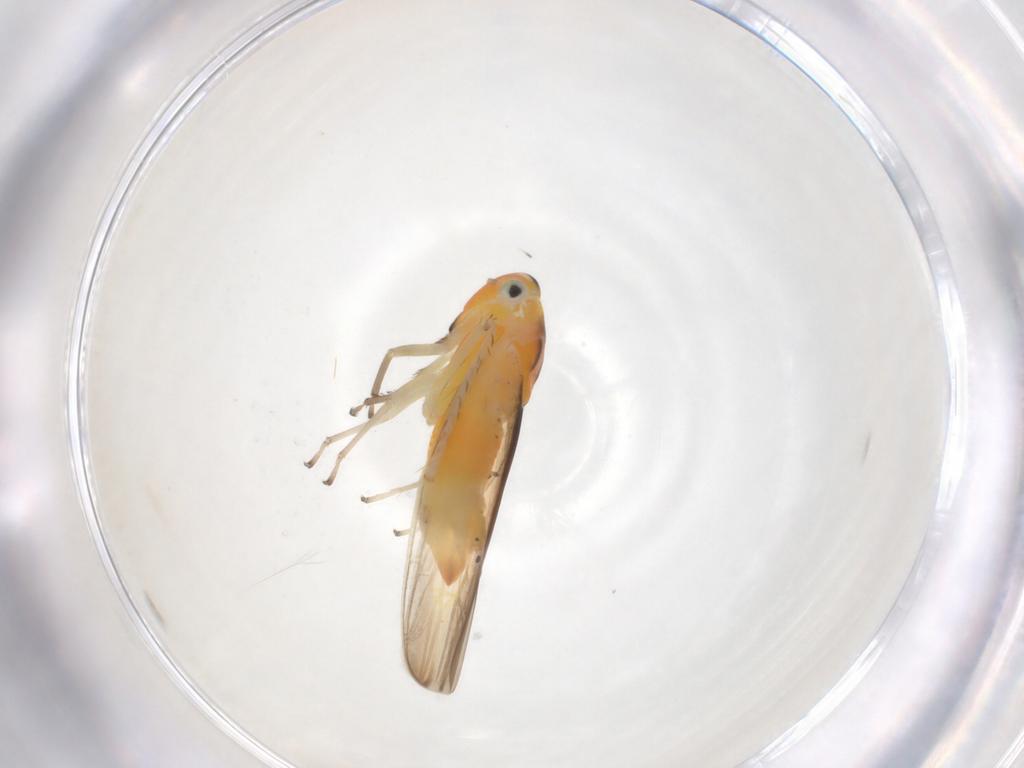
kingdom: Animalia
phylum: Arthropoda
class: Insecta
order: Hemiptera
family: Cicadellidae
